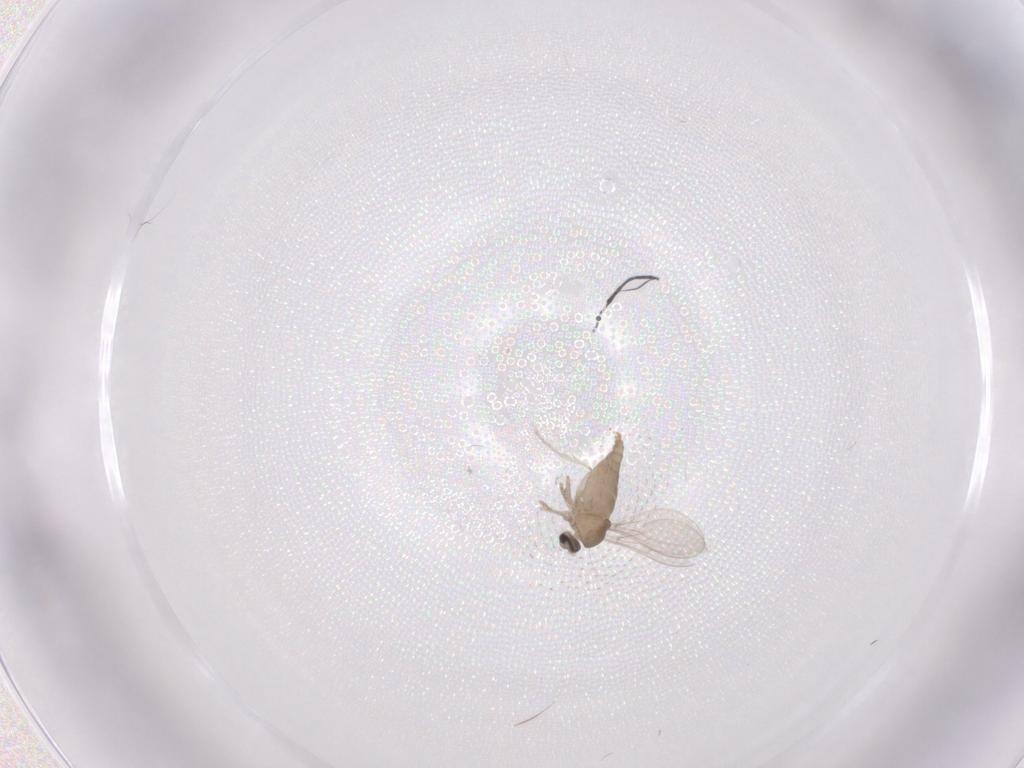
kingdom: Animalia
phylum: Arthropoda
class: Insecta
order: Diptera
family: Cecidomyiidae
